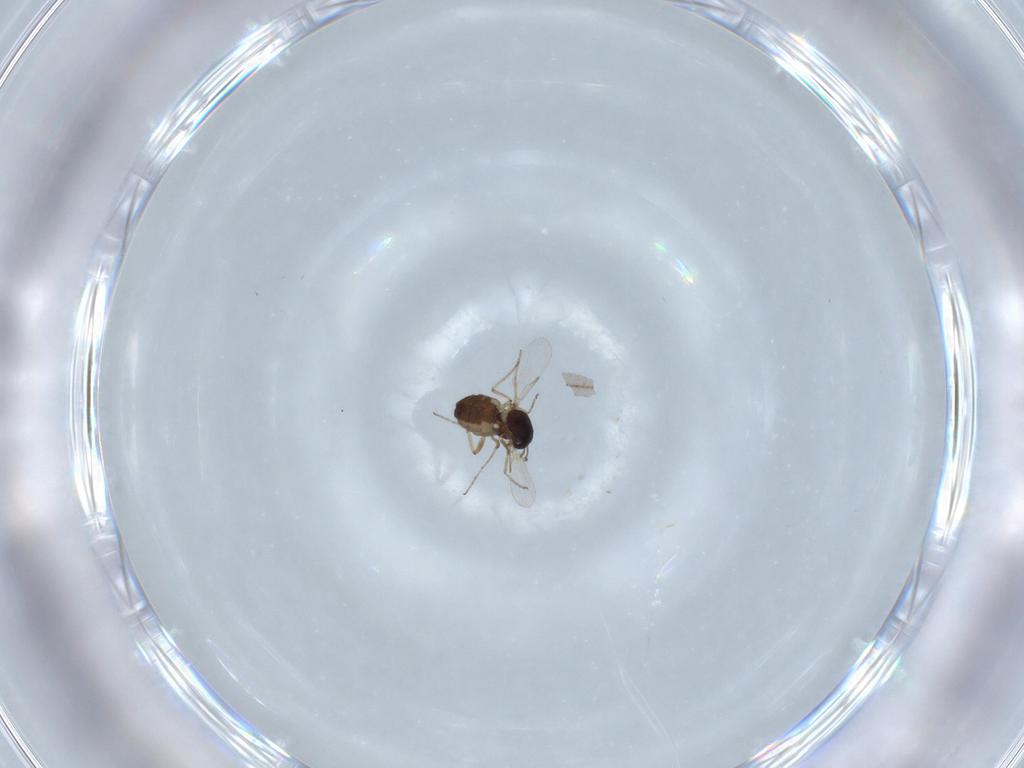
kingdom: Animalia
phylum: Arthropoda
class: Insecta
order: Diptera
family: Ceratopogonidae
